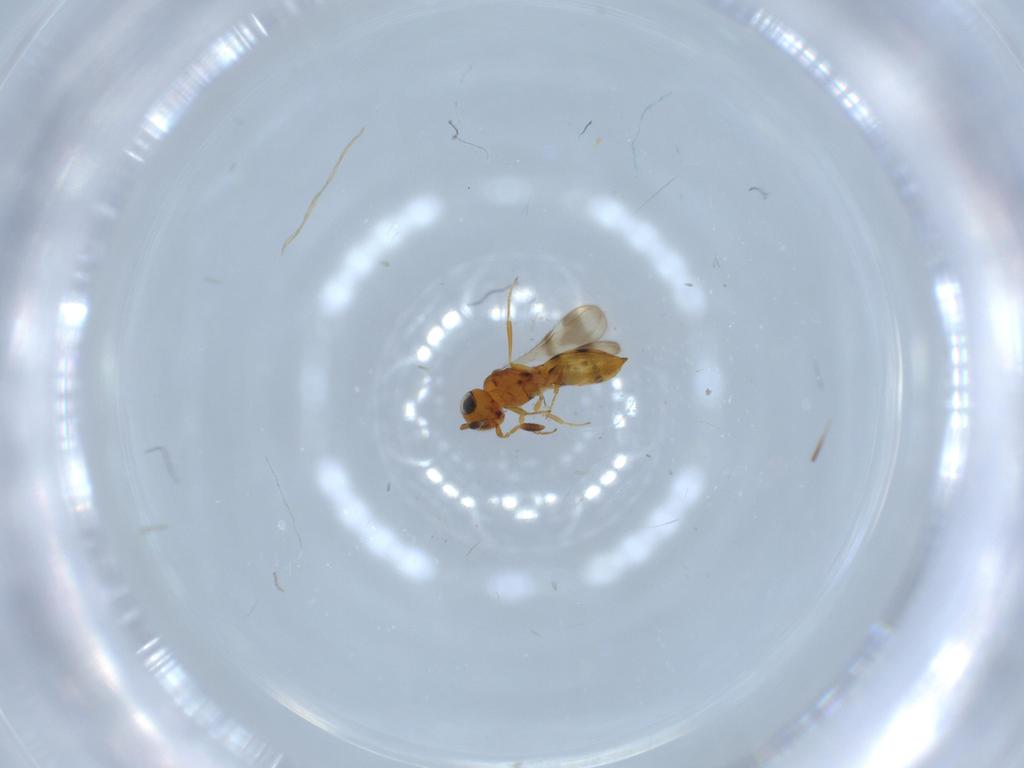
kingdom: Animalia
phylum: Arthropoda
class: Insecta
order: Hymenoptera
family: Scelionidae
